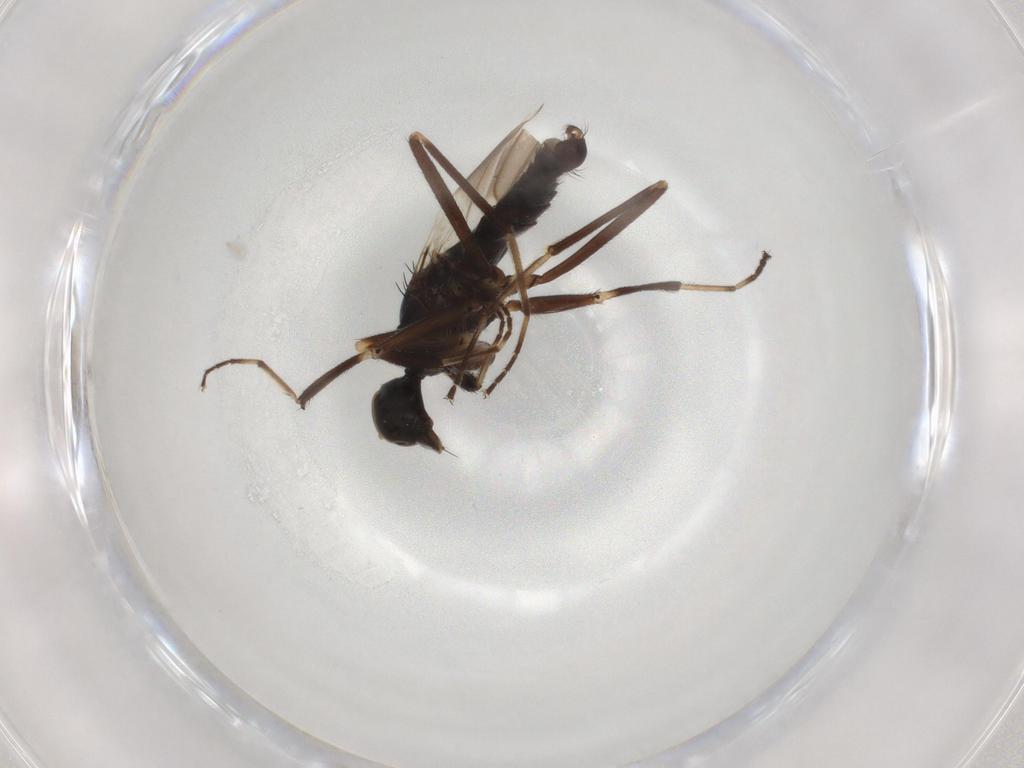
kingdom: Animalia
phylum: Arthropoda
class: Insecta
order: Diptera
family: Hybotidae
